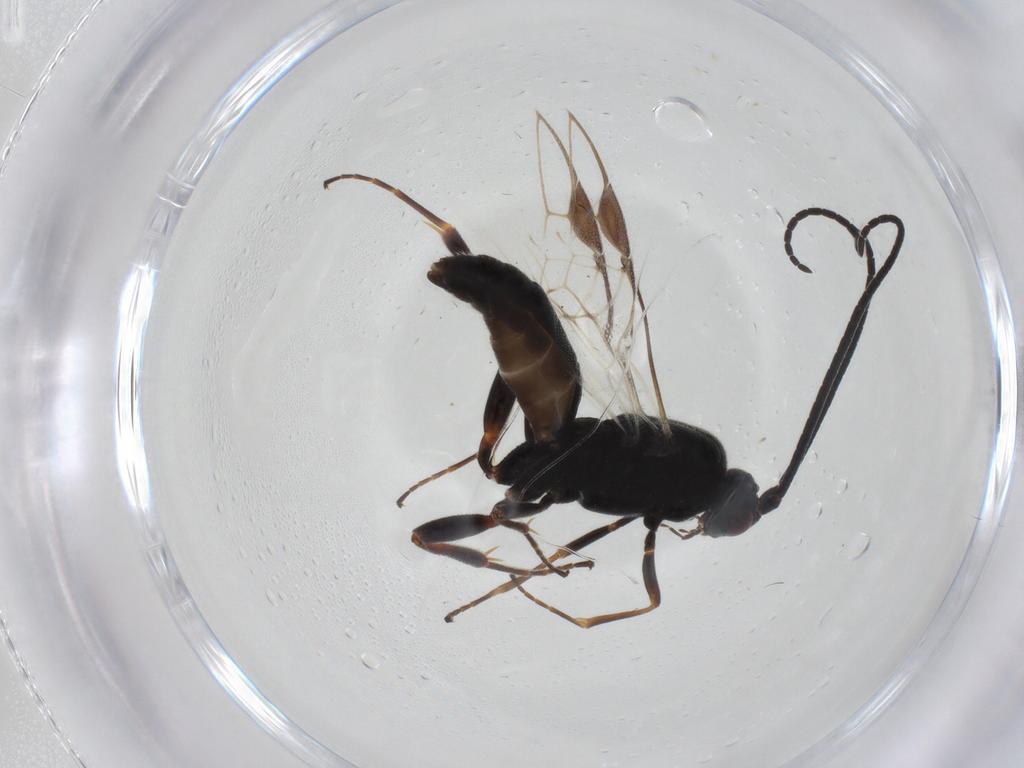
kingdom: Animalia
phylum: Arthropoda
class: Insecta
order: Hymenoptera
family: Braconidae
